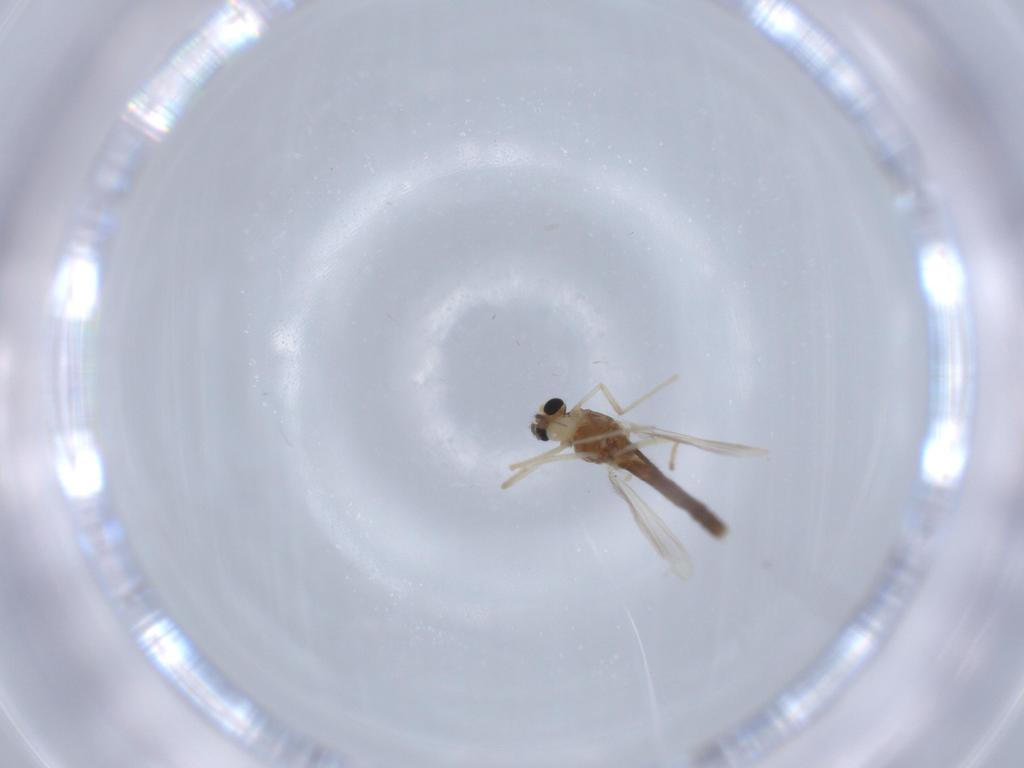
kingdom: Animalia
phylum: Arthropoda
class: Insecta
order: Diptera
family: Chironomidae
